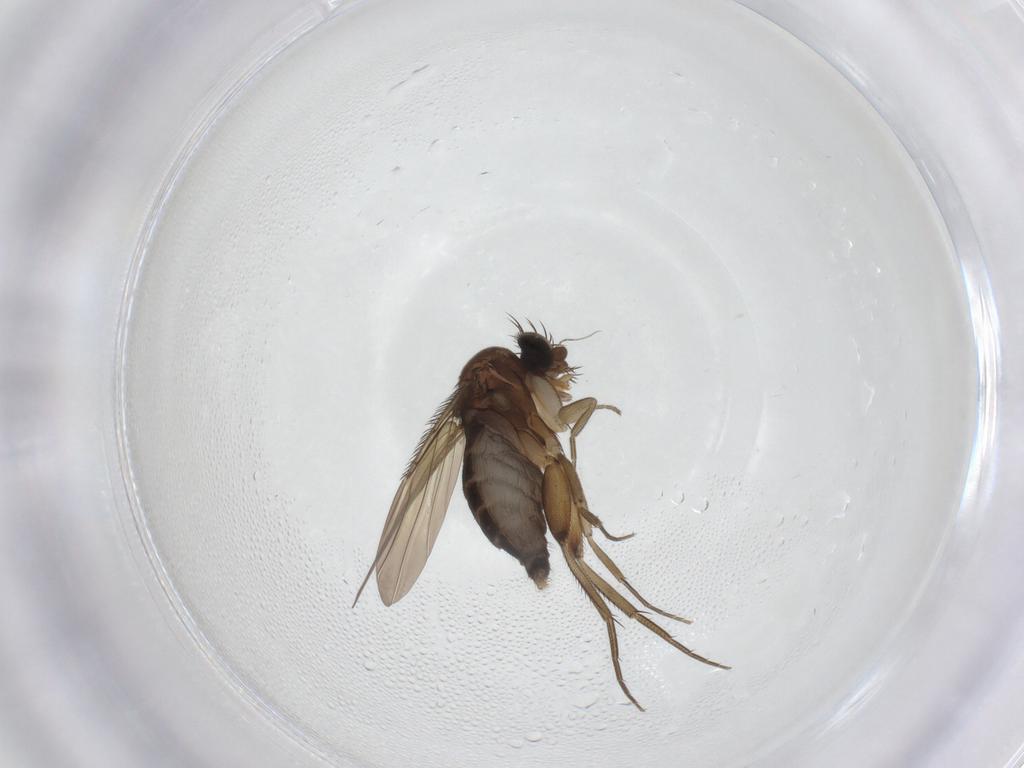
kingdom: Animalia
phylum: Arthropoda
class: Insecta
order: Diptera
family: Phoridae
